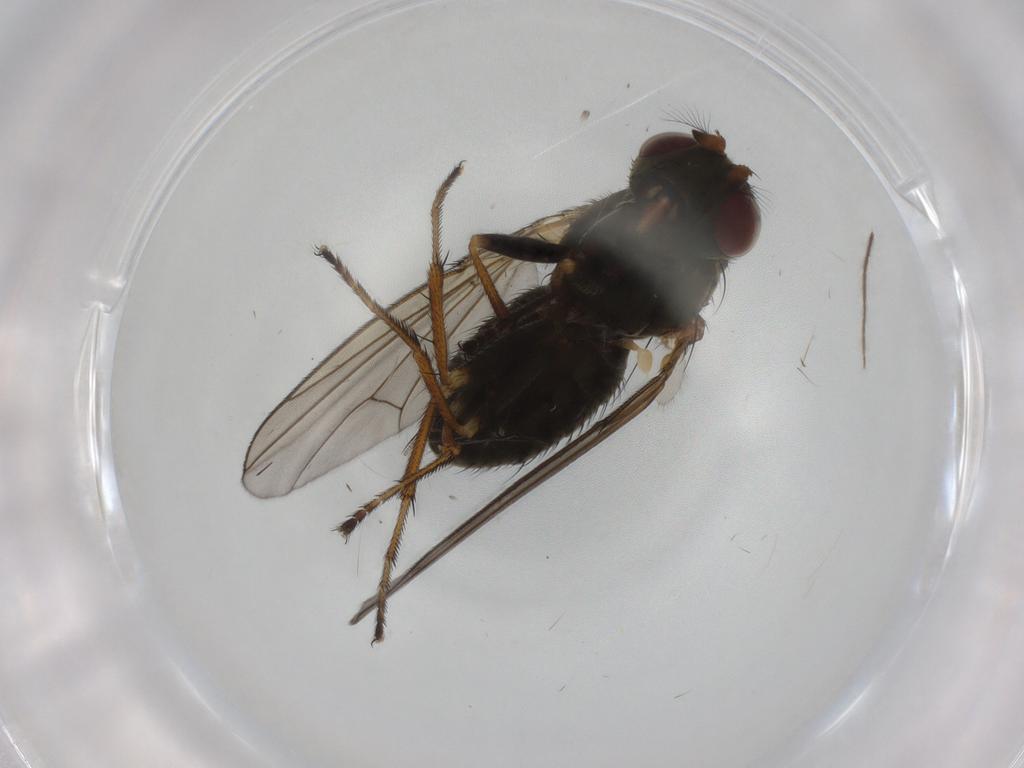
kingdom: Animalia
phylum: Arthropoda
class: Insecta
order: Diptera
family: Ephydridae
